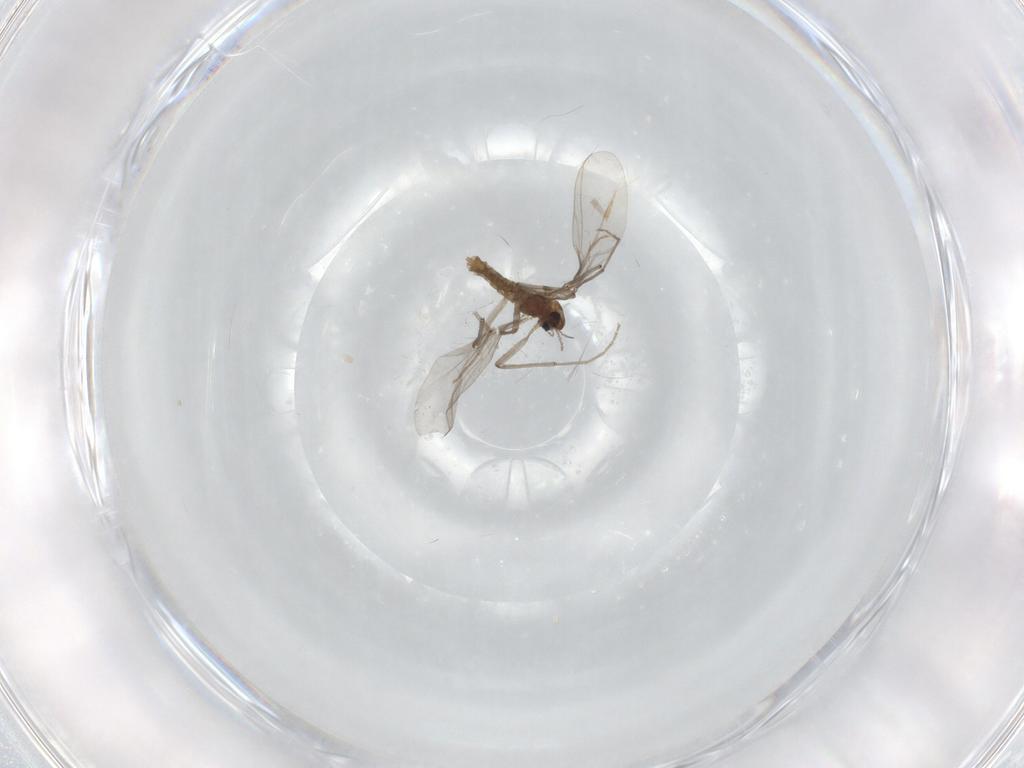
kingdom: Animalia
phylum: Arthropoda
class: Insecta
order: Diptera
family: Chironomidae
